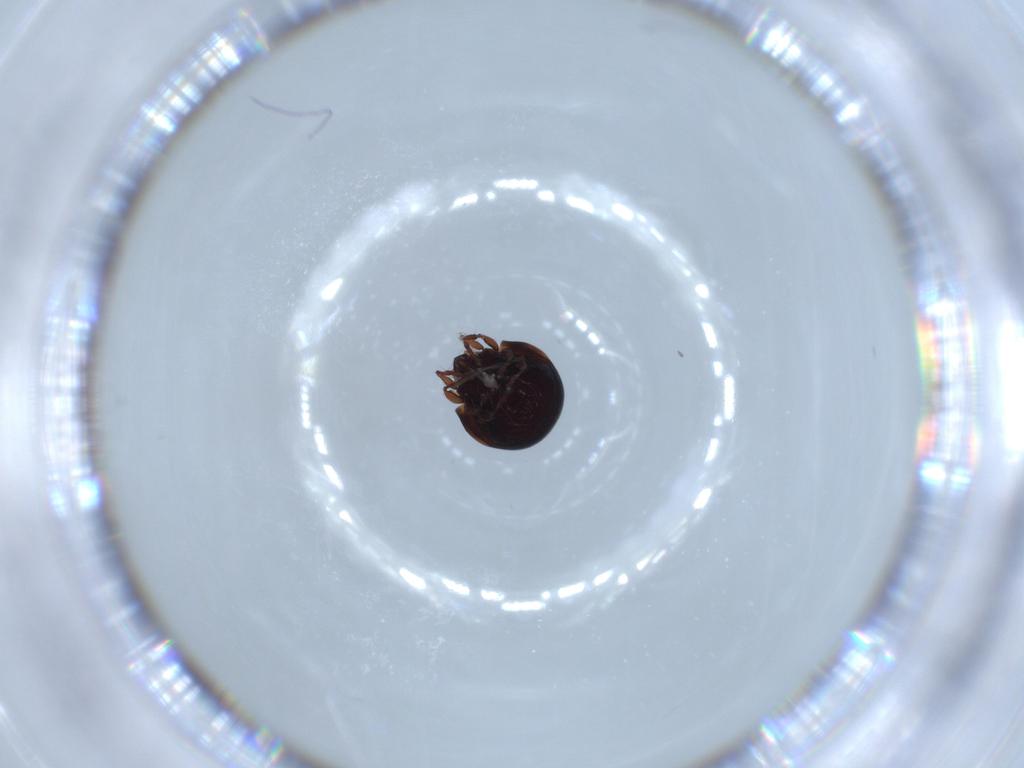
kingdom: Animalia
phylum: Arthropoda
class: Arachnida
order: Sarcoptiformes
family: Mochlozetidae
